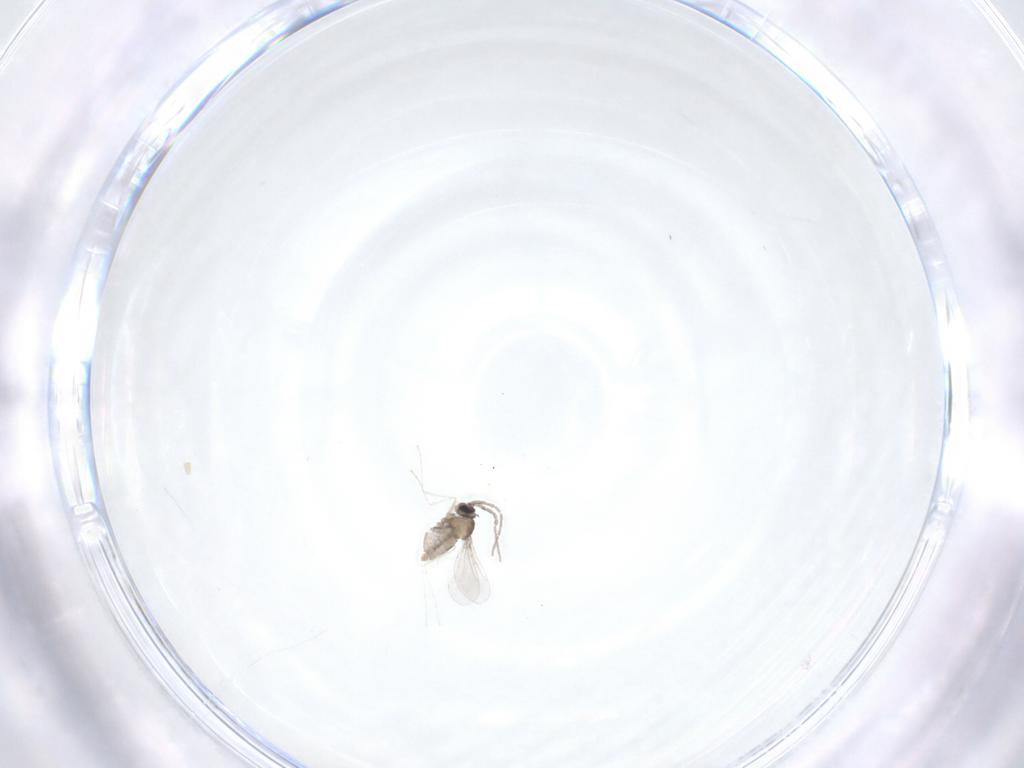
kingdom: Animalia
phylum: Arthropoda
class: Insecta
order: Diptera
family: Cecidomyiidae
